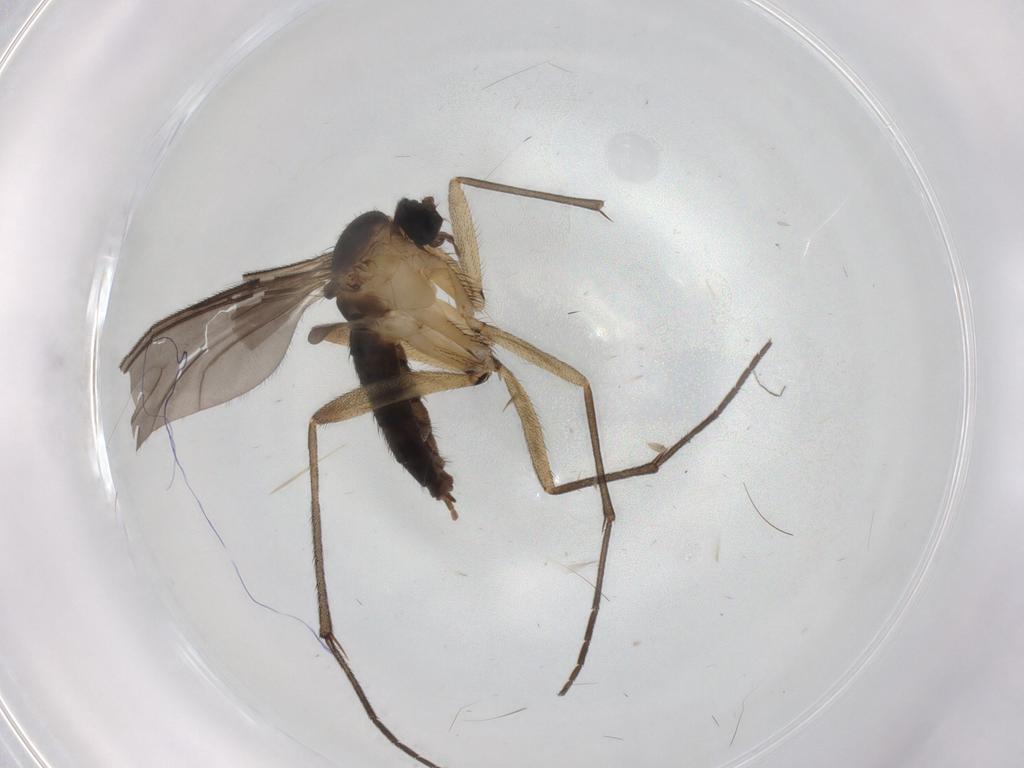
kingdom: Animalia
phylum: Arthropoda
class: Insecta
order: Diptera
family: Sciaridae
